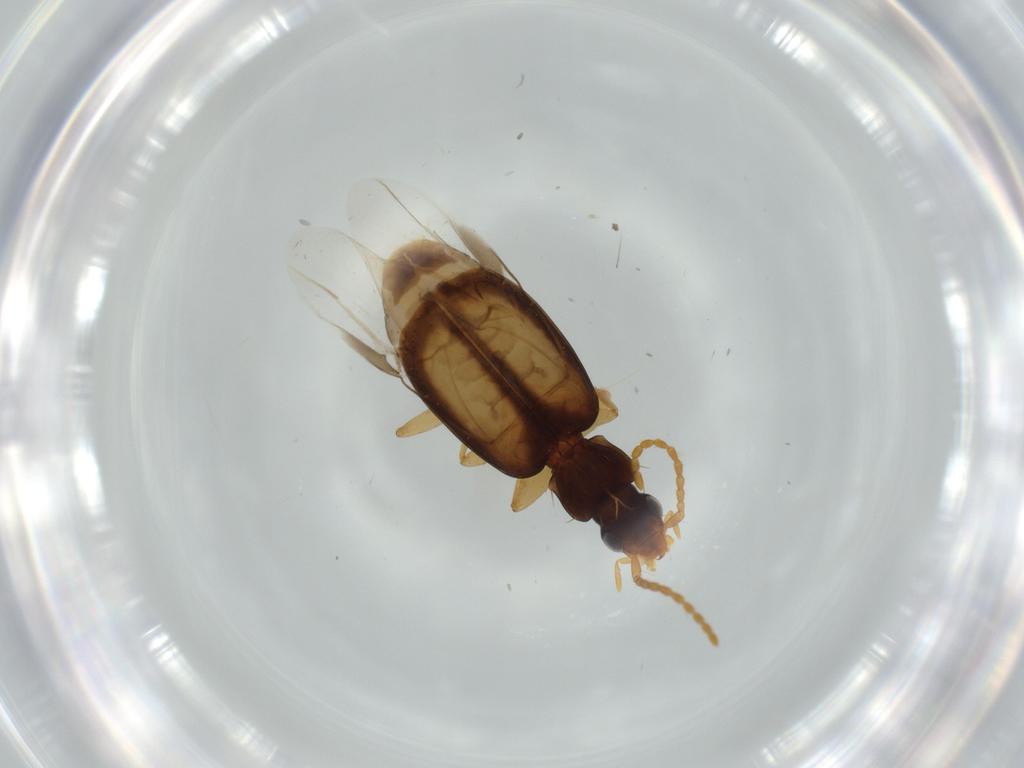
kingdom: Animalia
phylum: Arthropoda
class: Insecta
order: Coleoptera
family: Carabidae
